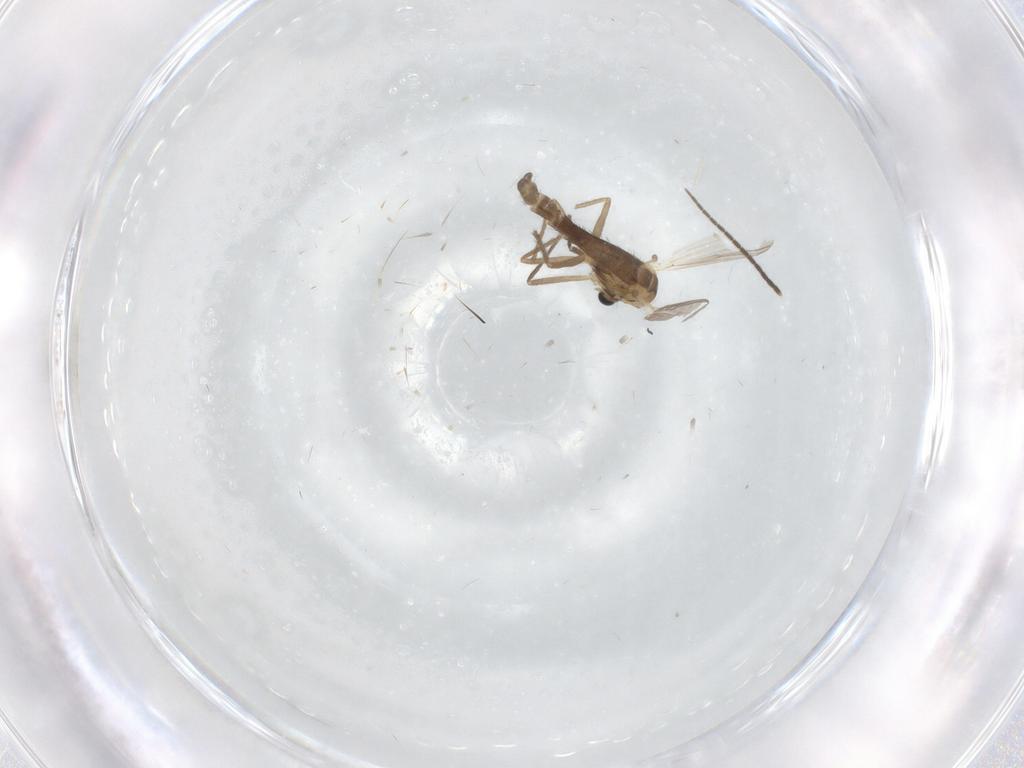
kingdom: Animalia
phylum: Arthropoda
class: Insecta
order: Diptera
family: Chironomidae
